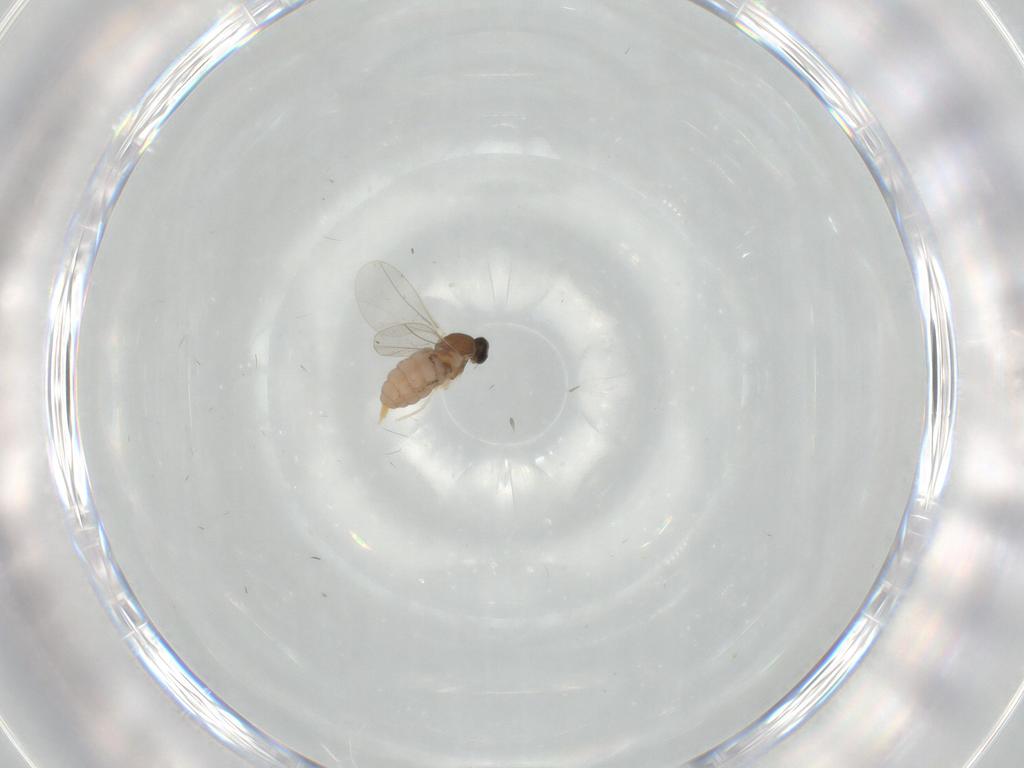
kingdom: Animalia
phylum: Arthropoda
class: Insecta
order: Diptera
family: Cecidomyiidae
